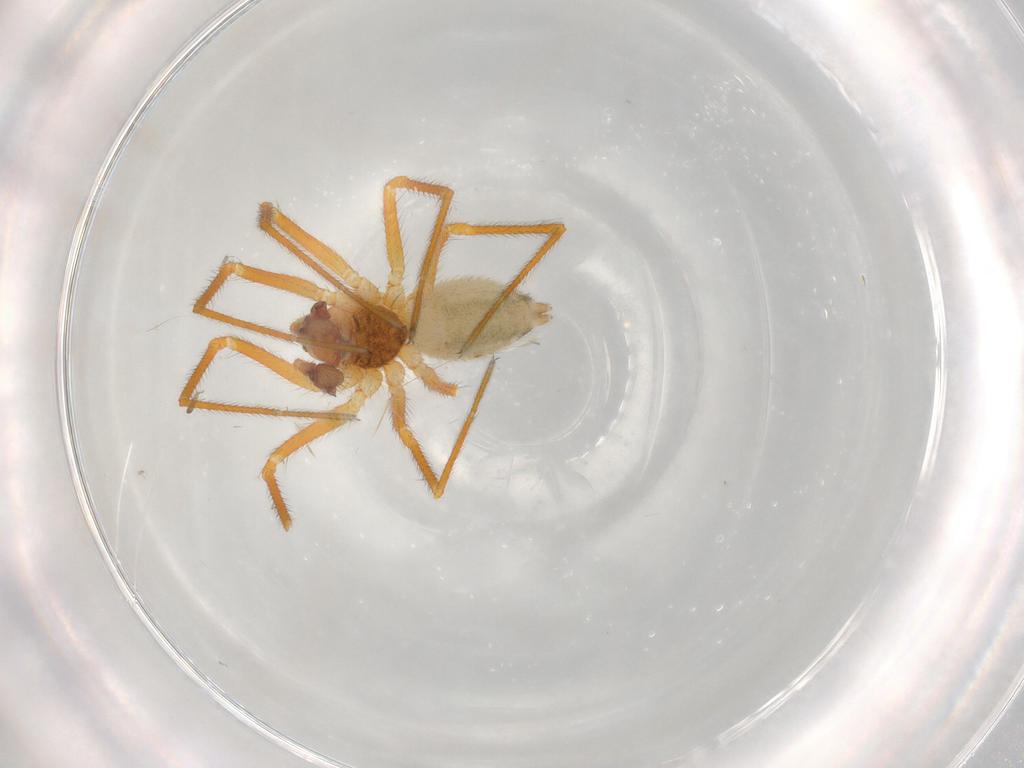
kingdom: Animalia
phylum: Arthropoda
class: Arachnida
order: Araneae
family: Linyphiidae
